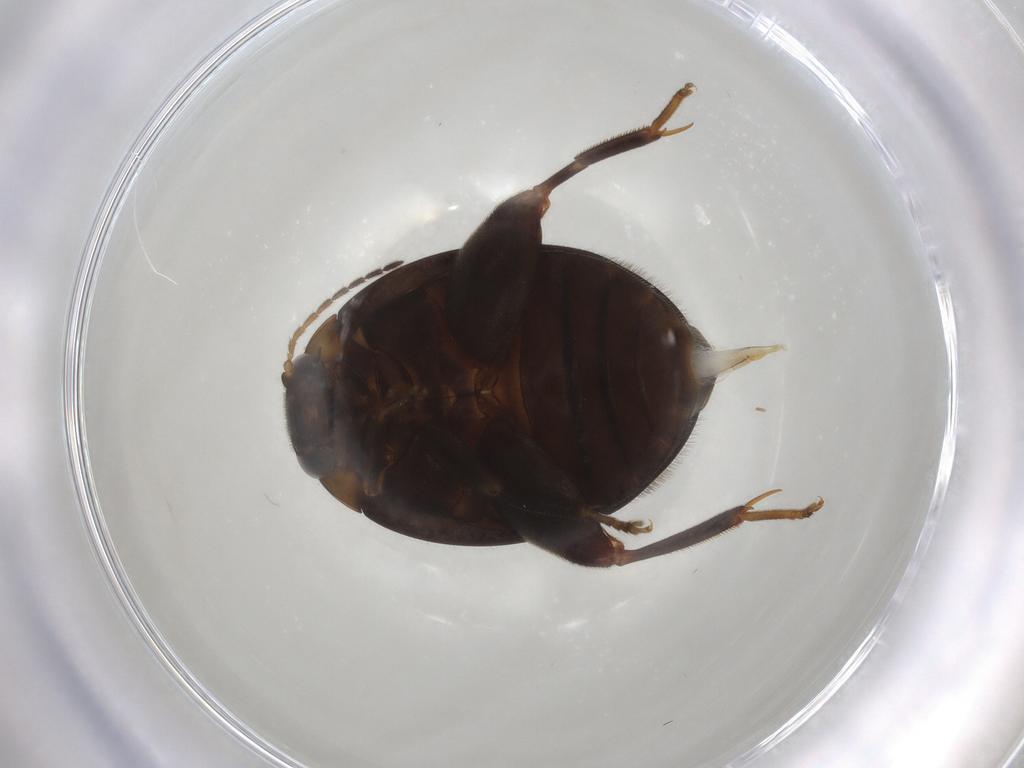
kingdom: Animalia
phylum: Arthropoda
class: Insecta
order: Coleoptera
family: Scirtidae
